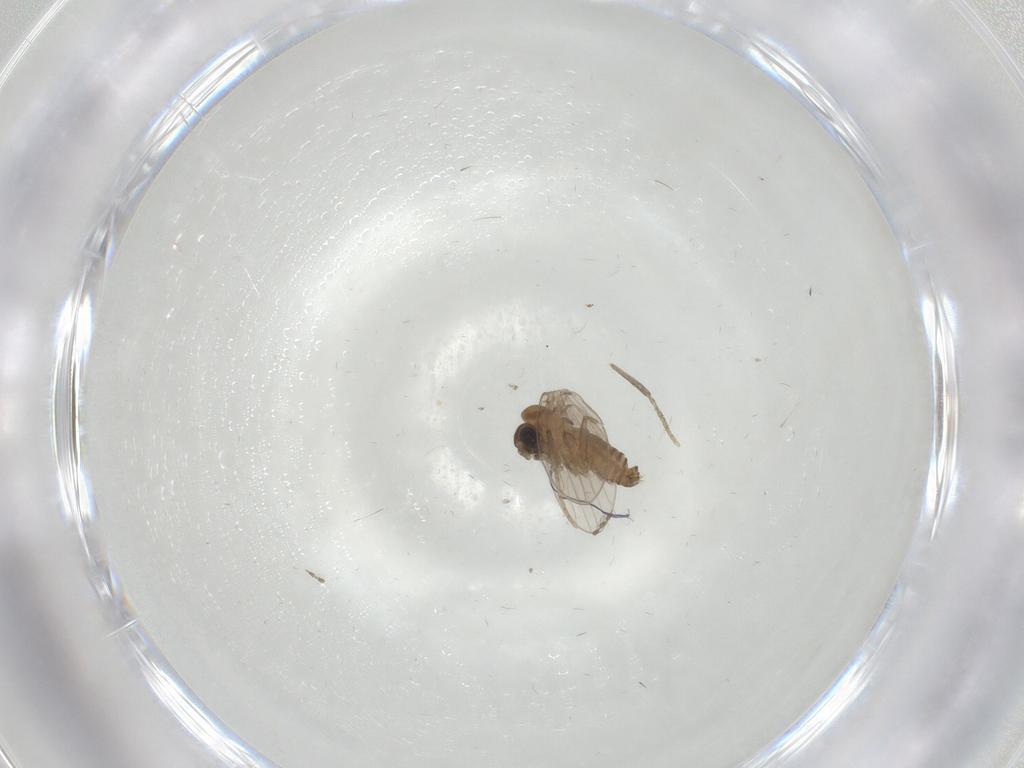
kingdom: Animalia
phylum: Arthropoda
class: Insecta
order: Diptera
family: Psychodidae
